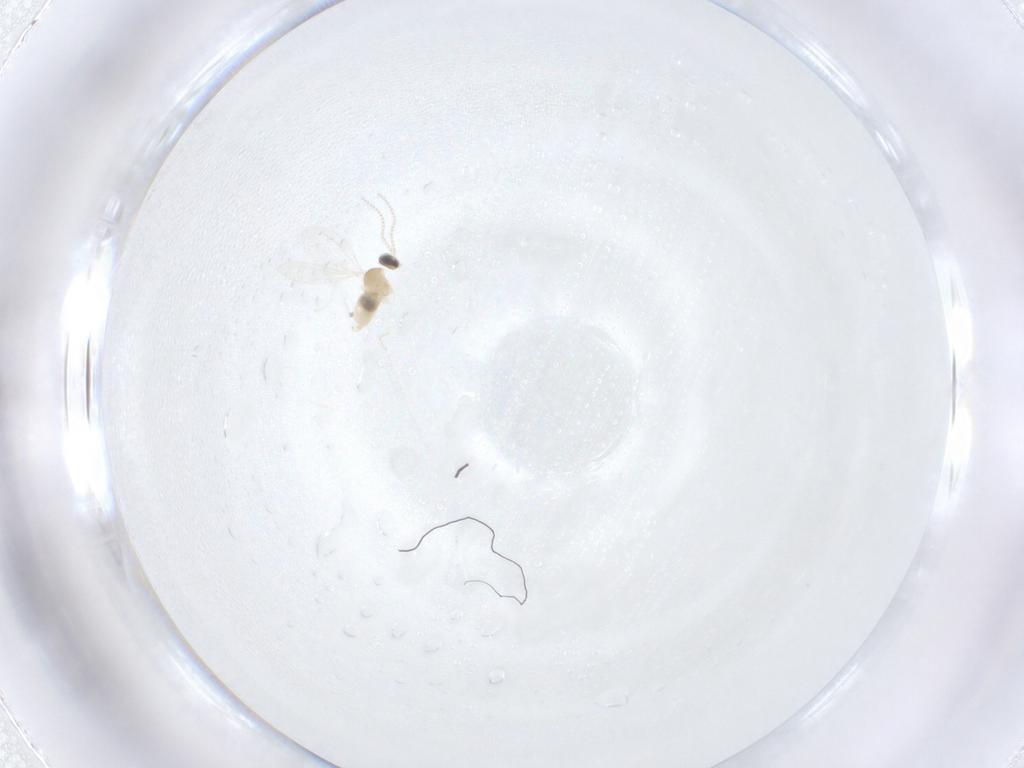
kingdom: Animalia
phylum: Arthropoda
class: Insecta
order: Diptera
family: Cecidomyiidae
